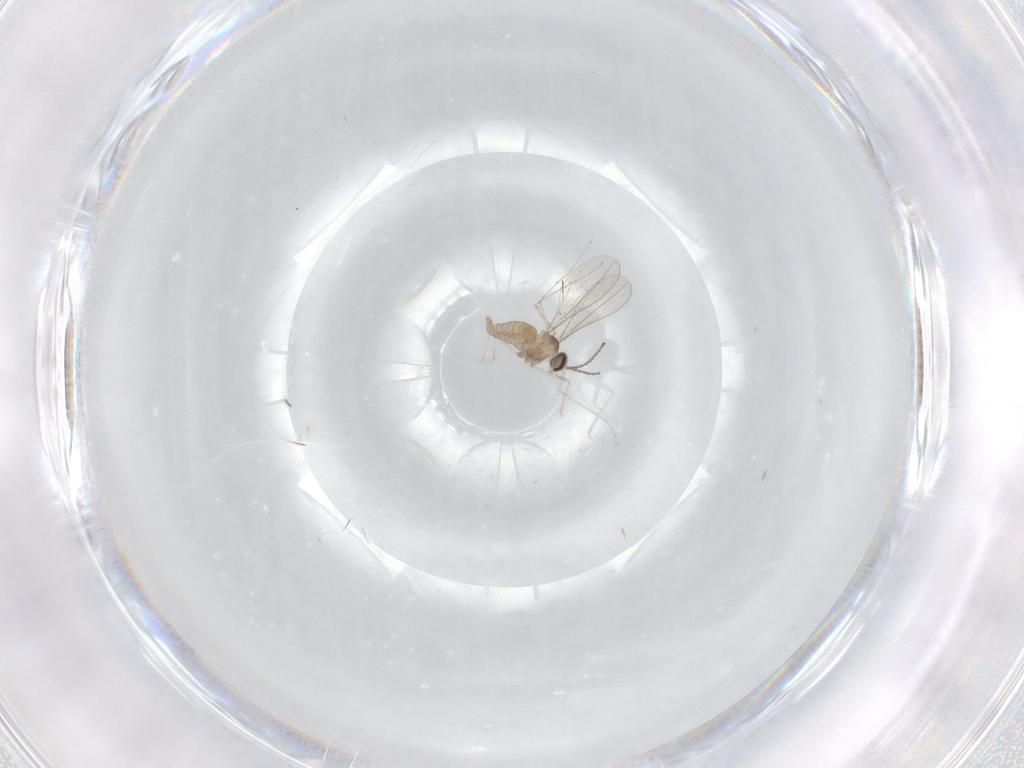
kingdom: Animalia
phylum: Arthropoda
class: Insecta
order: Diptera
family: Cecidomyiidae
